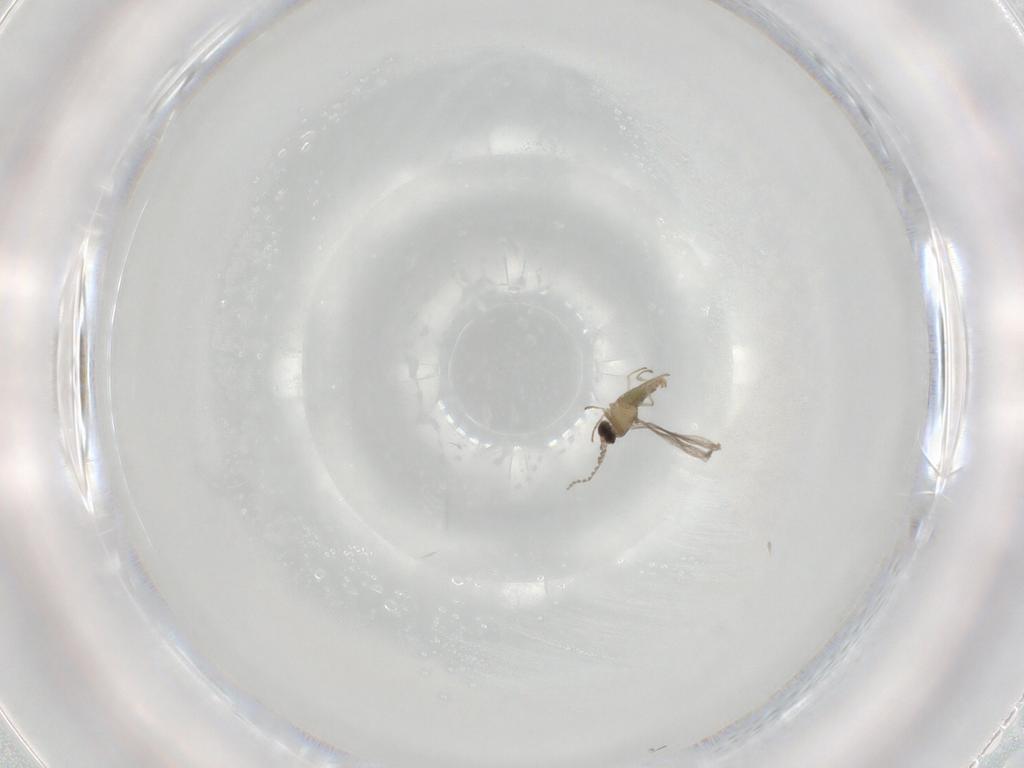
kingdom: Animalia
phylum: Arthropoda
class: Insecta
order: Diptera
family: Cecidomyiidae
